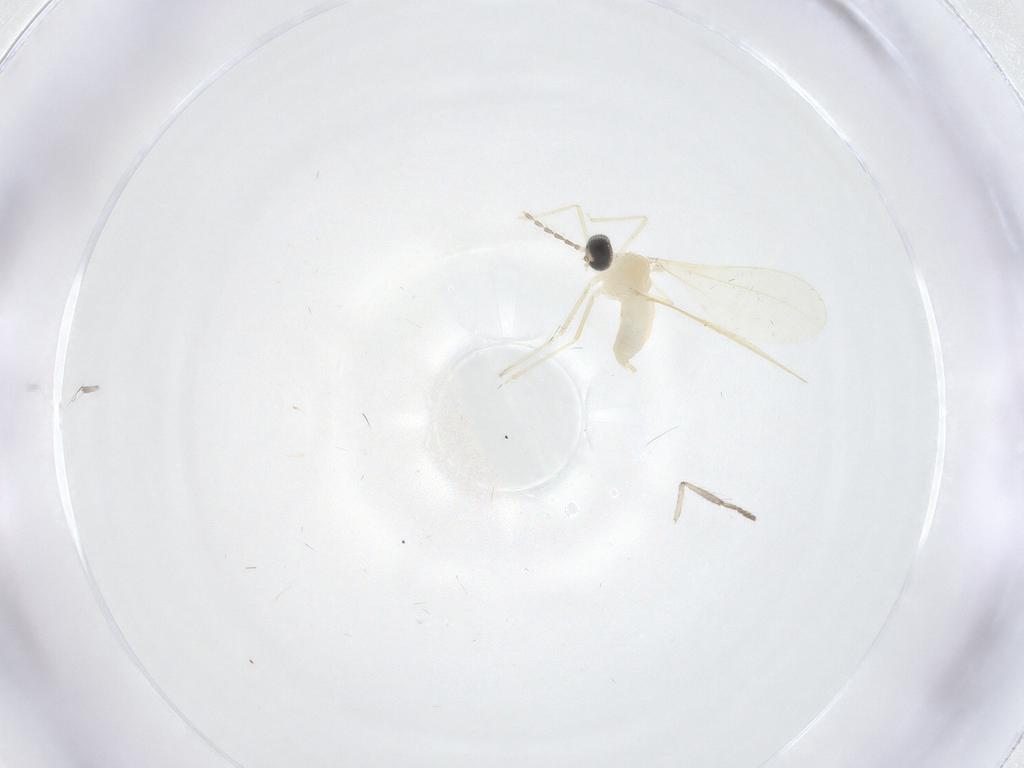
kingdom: Animalia
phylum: Arthropoda
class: Insecta
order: Diptera
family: Cecidomyiidae
